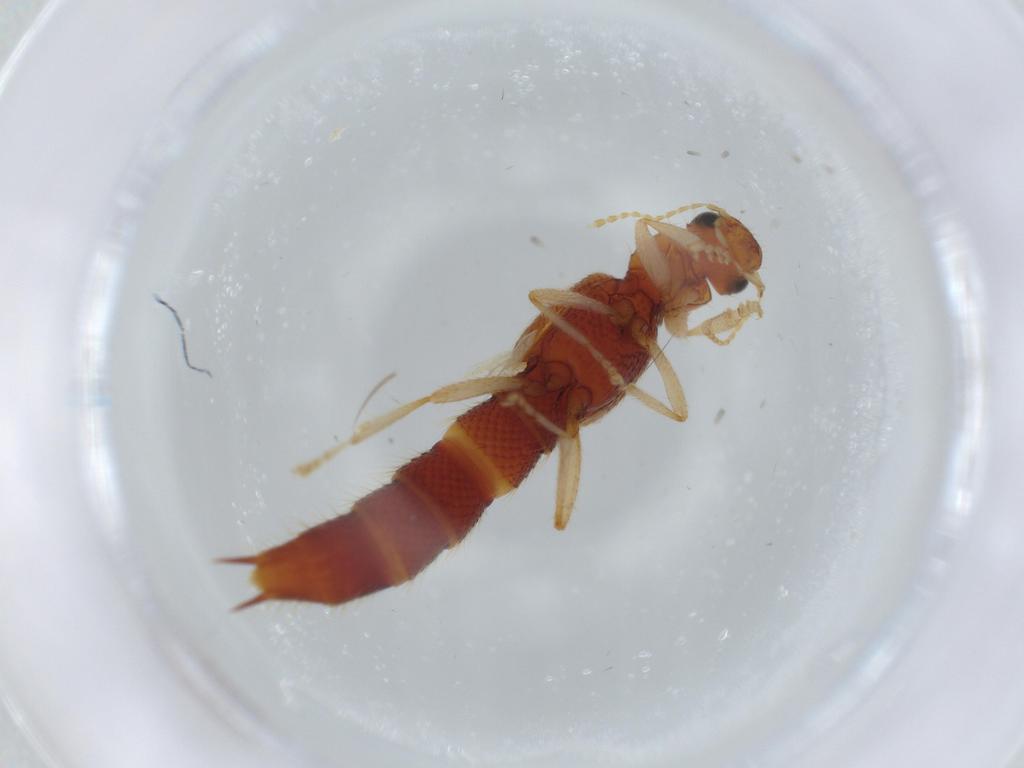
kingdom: Animalia
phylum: Arthropoda
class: Insecta
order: Coleoptera
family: Staphylinidae
